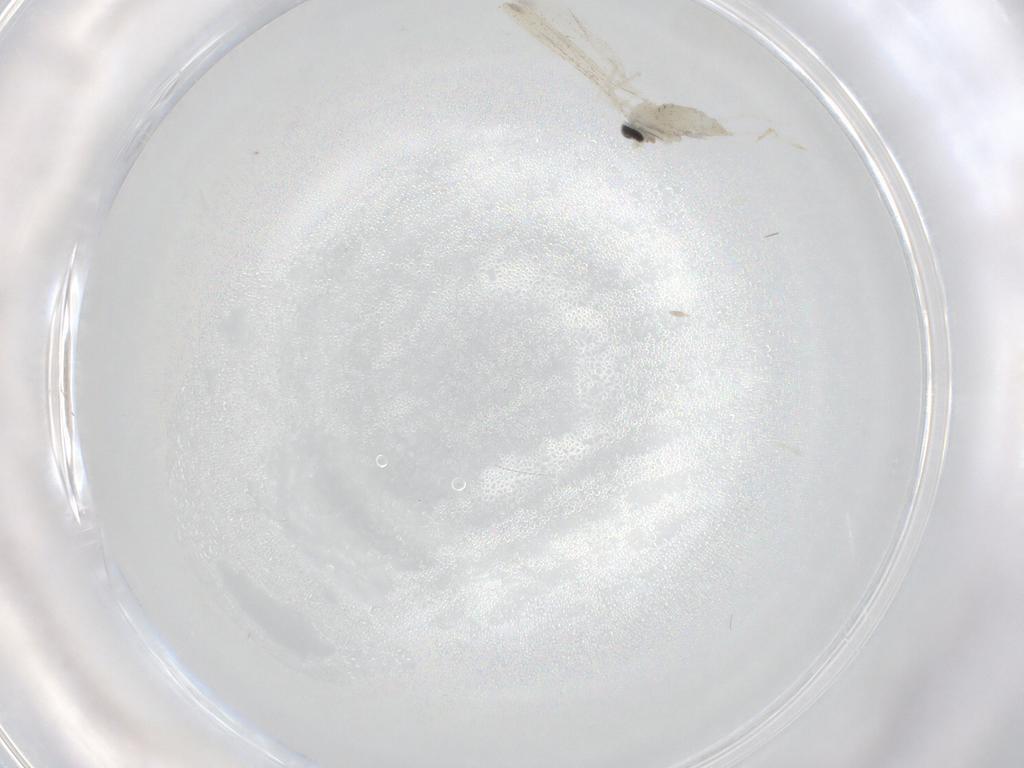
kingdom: Animalia
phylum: Arthropoda
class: Insecta
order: Diptera
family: Cecidomyiidae
